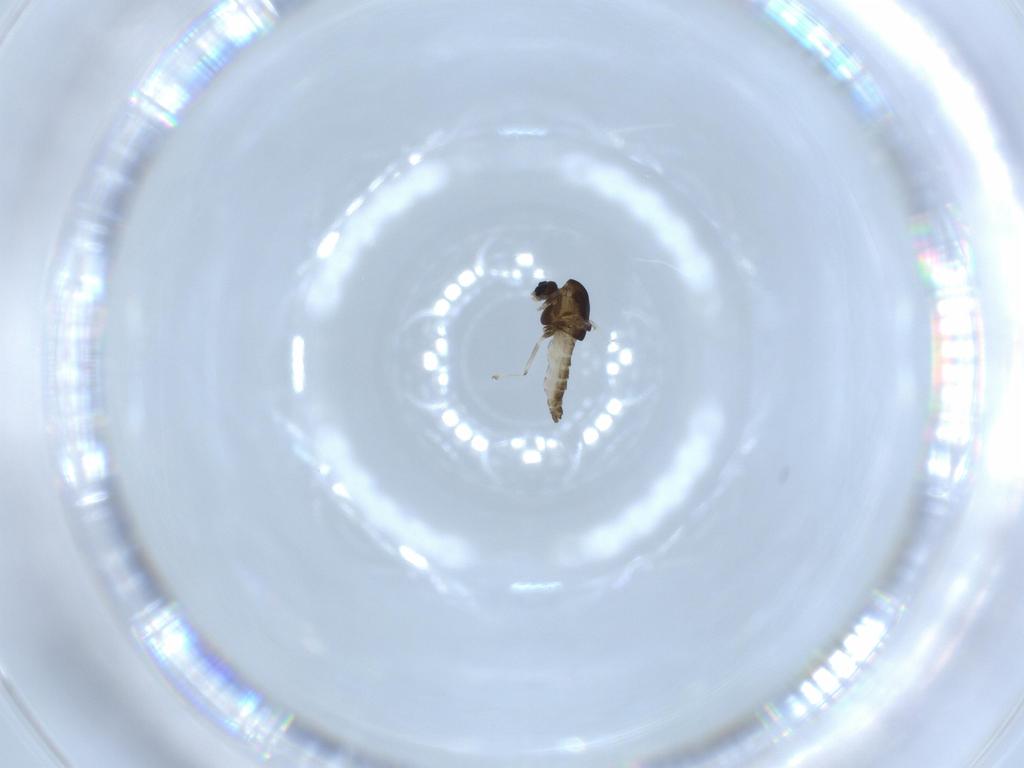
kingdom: Animalia
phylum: Arthropoda
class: Insecta
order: Diptera
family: Chironomidae
